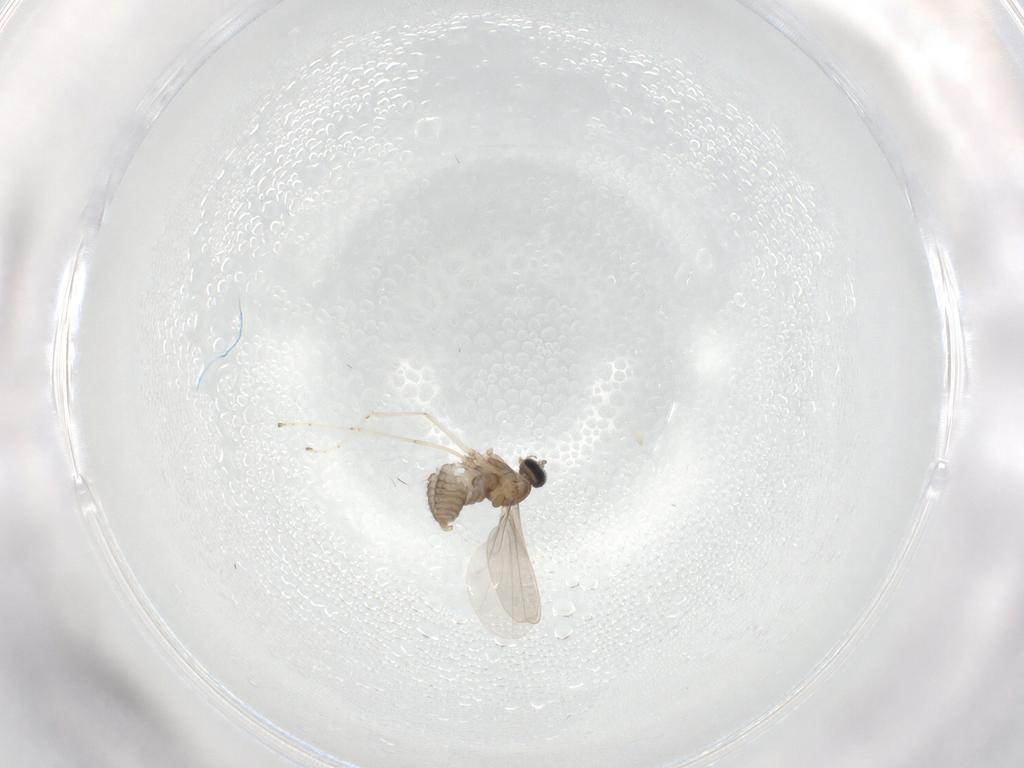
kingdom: Animalia
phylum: Arthropoda
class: Insecta
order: Diptera
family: Cecidomyiidae
